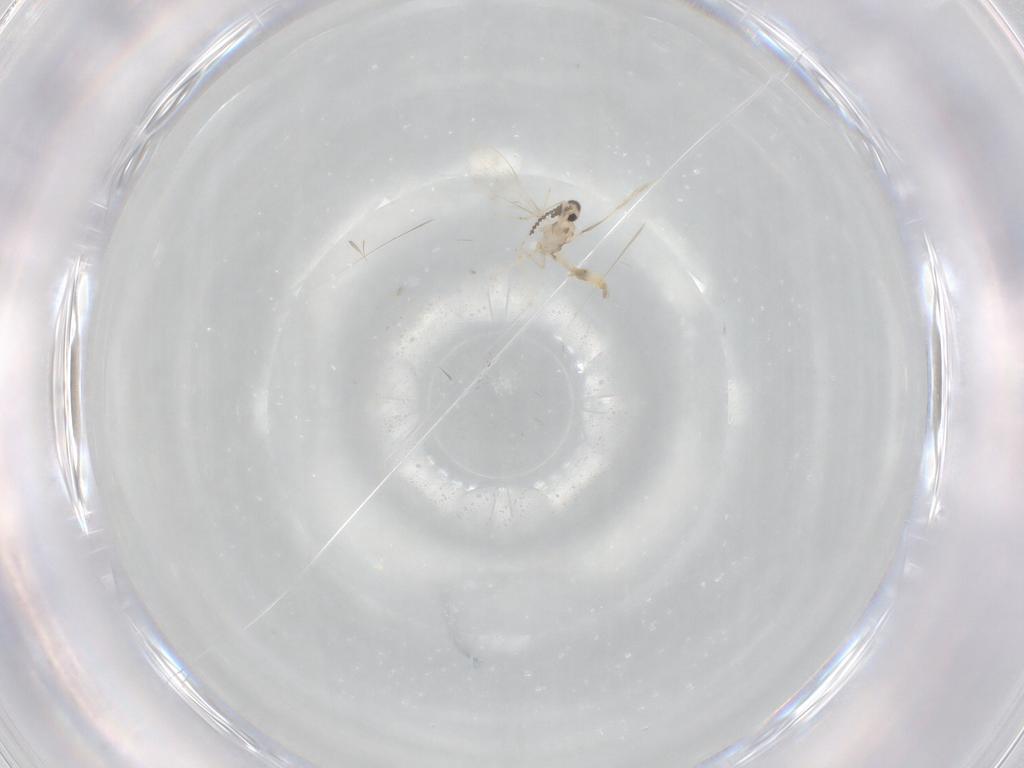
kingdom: Animalia
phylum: Arthropoda
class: Insecta
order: Diptera
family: Cecidomyiidae
